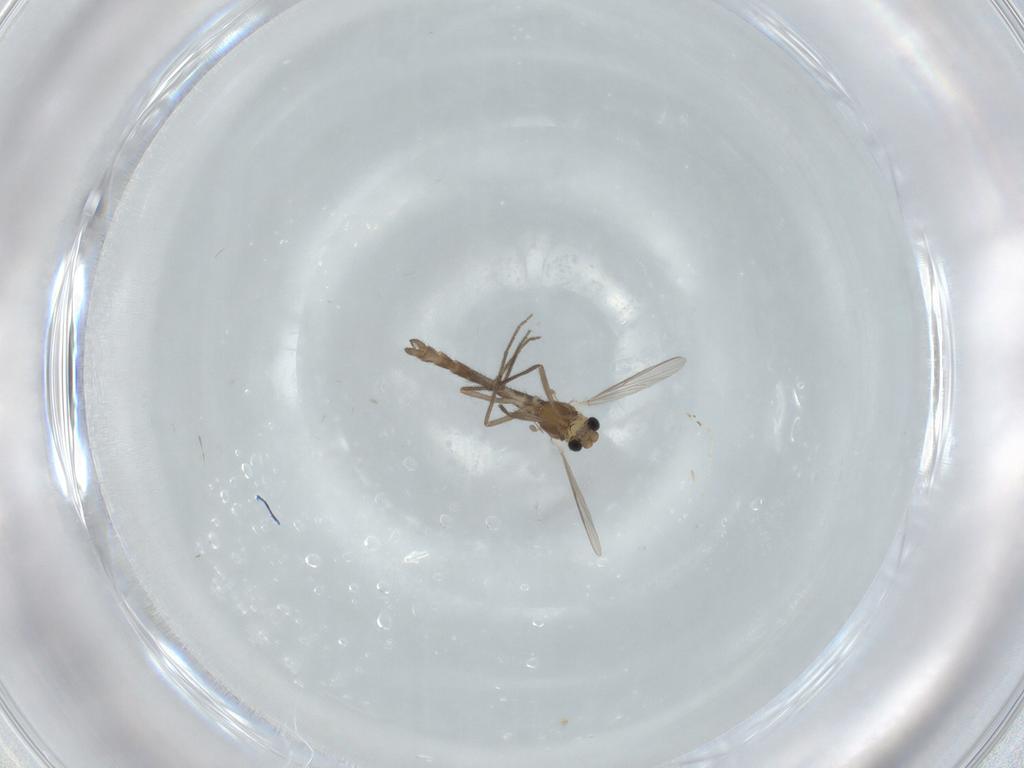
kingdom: Animalia
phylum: Arthropoda
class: Insecta
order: Diptera
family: Chironomidae
